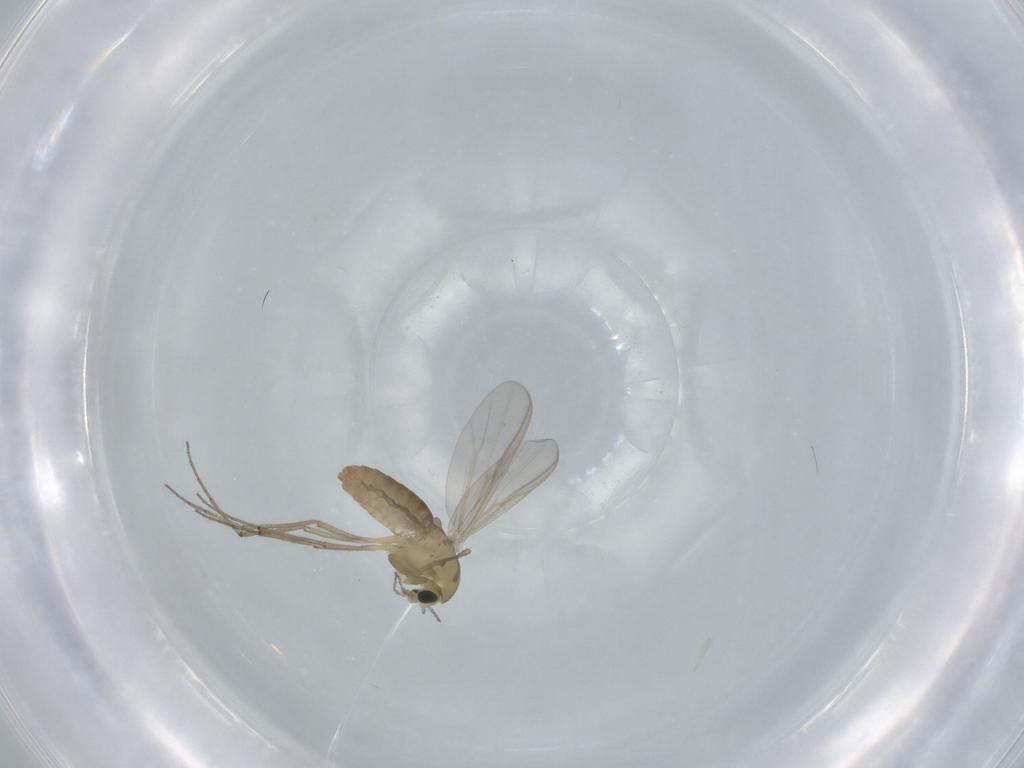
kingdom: Animalia
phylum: Arthropoda
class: Insecta
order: Diptera
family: Chironomidae
